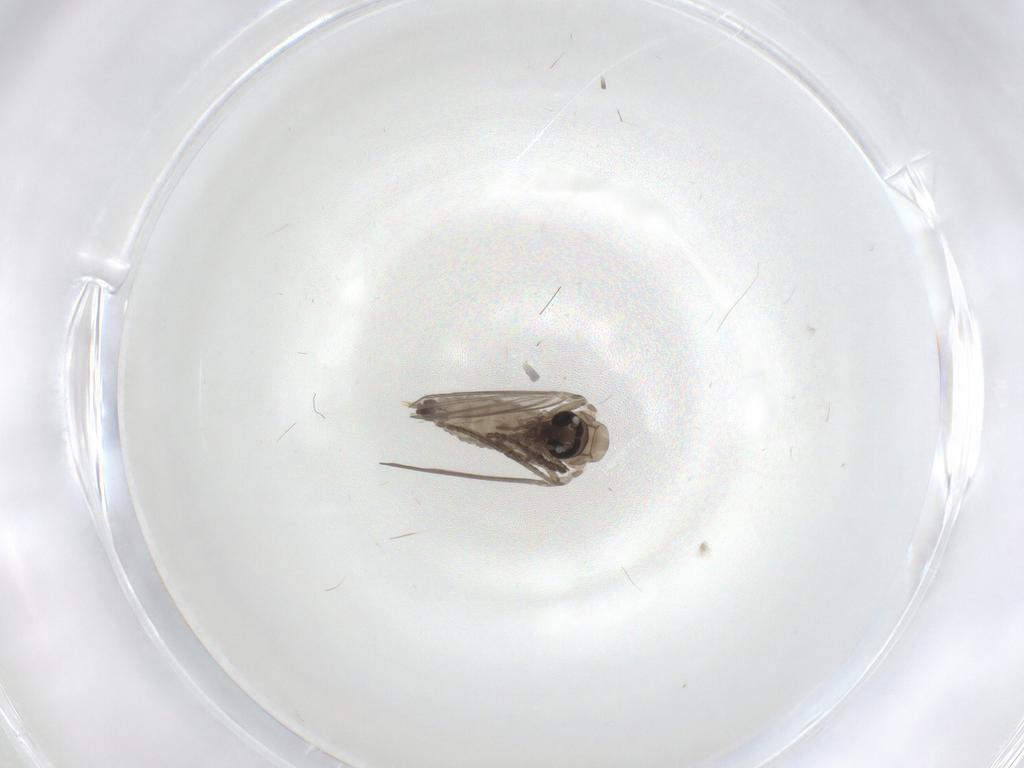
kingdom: Animalia
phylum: Arthropoda
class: Insecta
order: Diptera
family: Psychodidae
